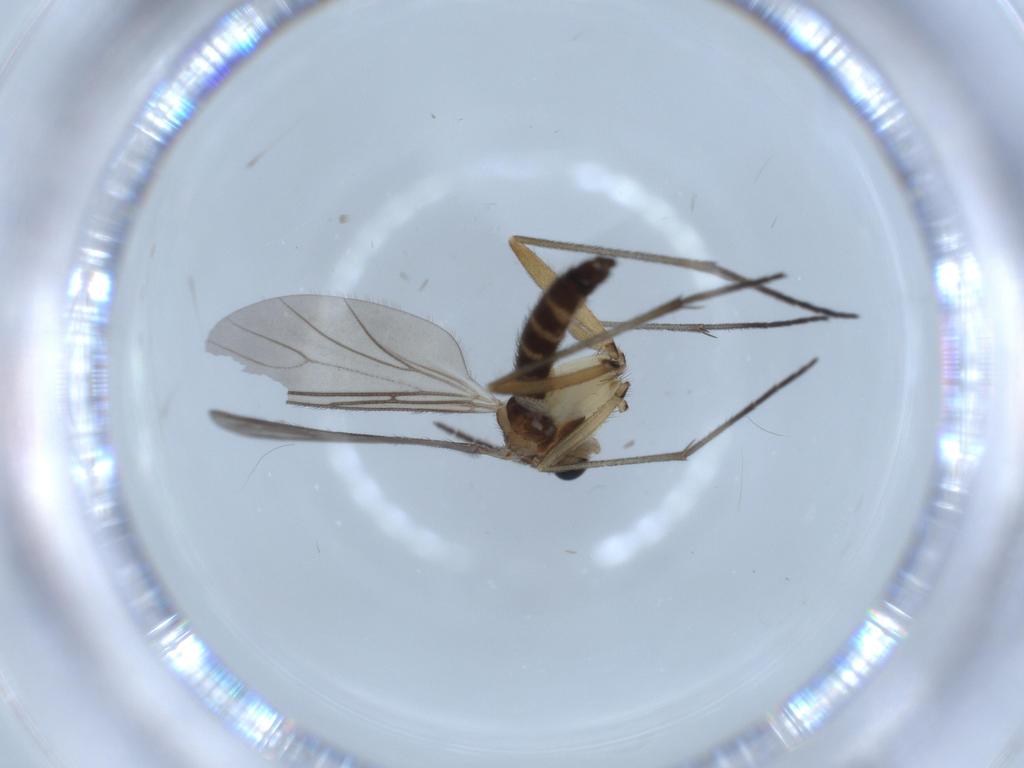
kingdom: Animalia
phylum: Arthropoda
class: Insecta
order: Diptera
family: Sciaridae
